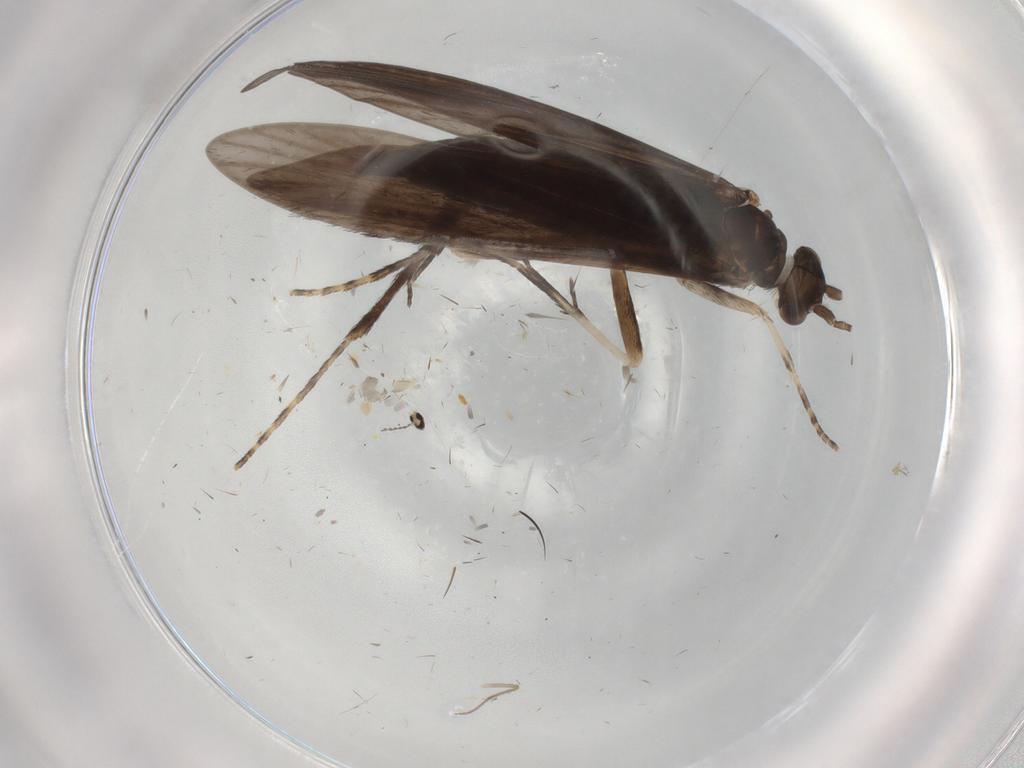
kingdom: Animalia
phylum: Arthropoda
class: Insecta
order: Trichoptera
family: Xiphocentronidae
